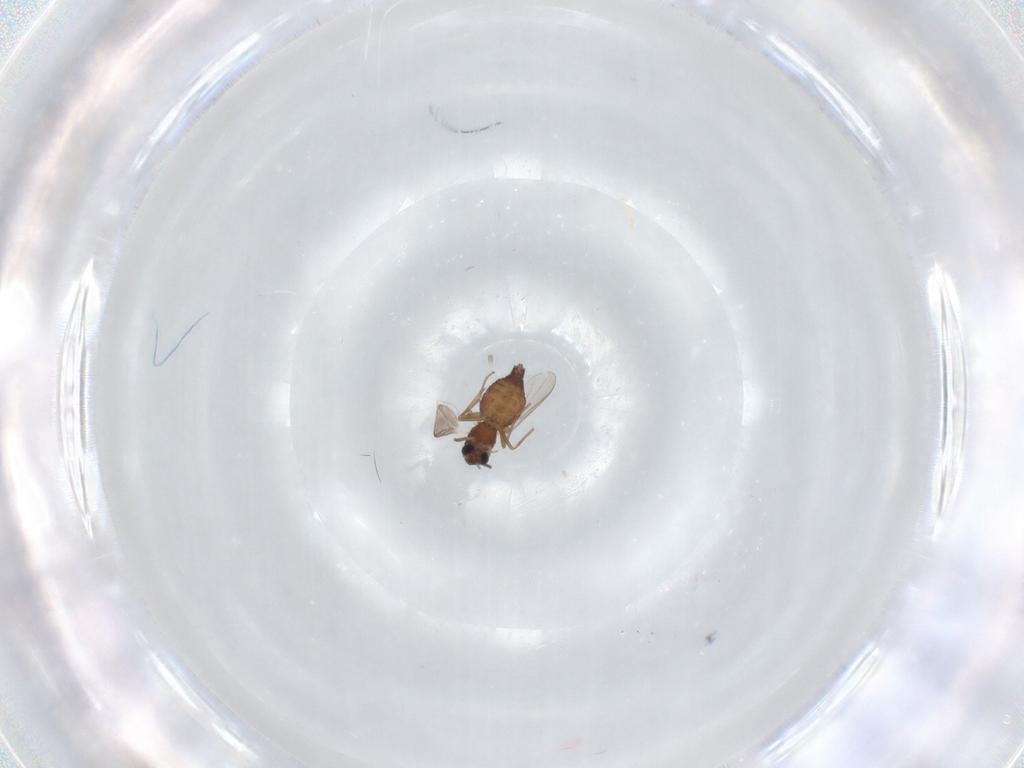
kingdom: Animalia
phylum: Arthropoda
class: Insecta
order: Diptera
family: Chironomidae
